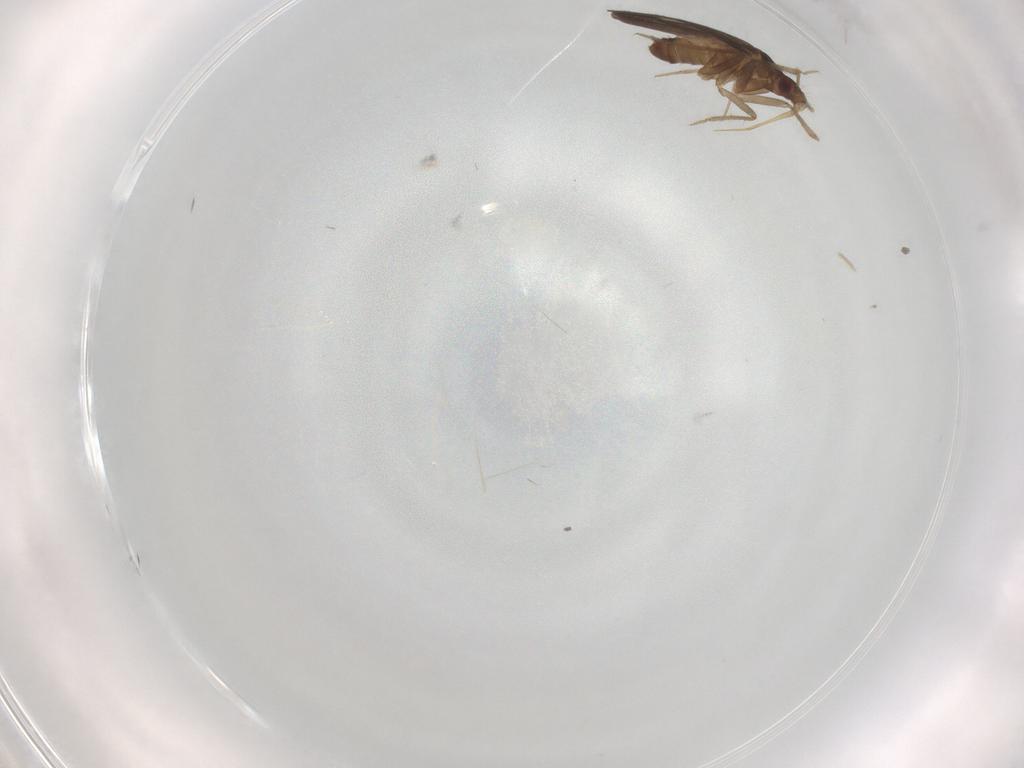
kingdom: Animalia
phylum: Arthropoda
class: Insecta
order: Hemiptera
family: Ceratocombidae
